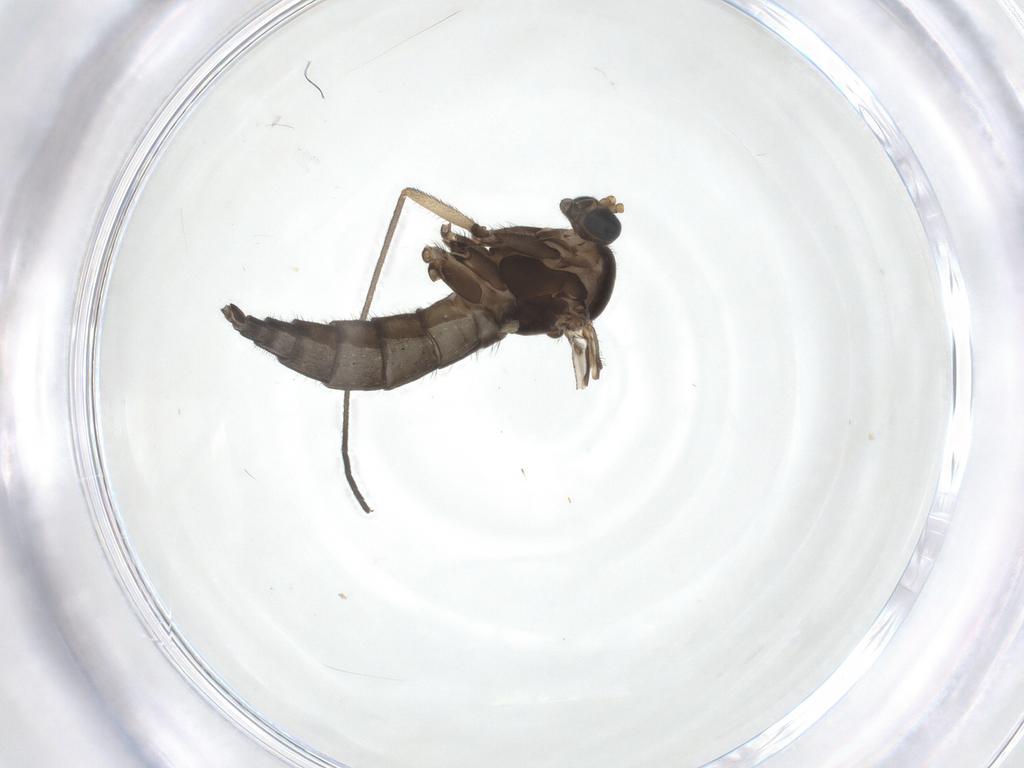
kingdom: Animalia
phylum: Arthropoda
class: Insecta
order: Diptera
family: Sciaridae
